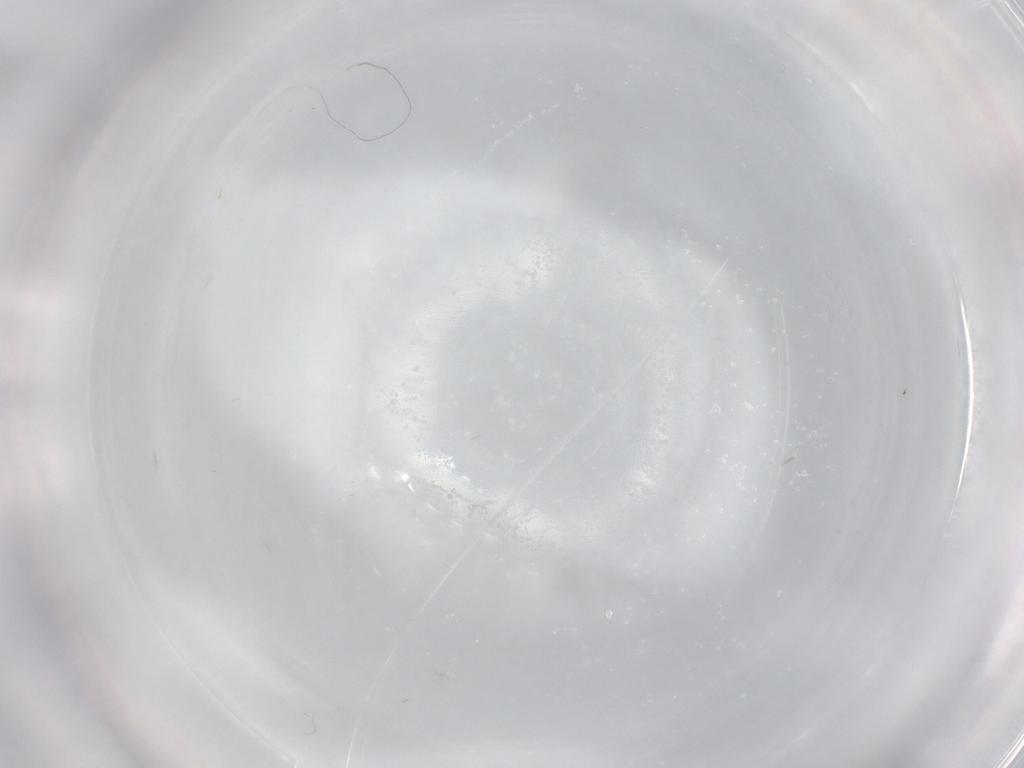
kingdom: Animalia
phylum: Arthropoda
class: Insecta
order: Diptera
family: Cecidomyiidae
